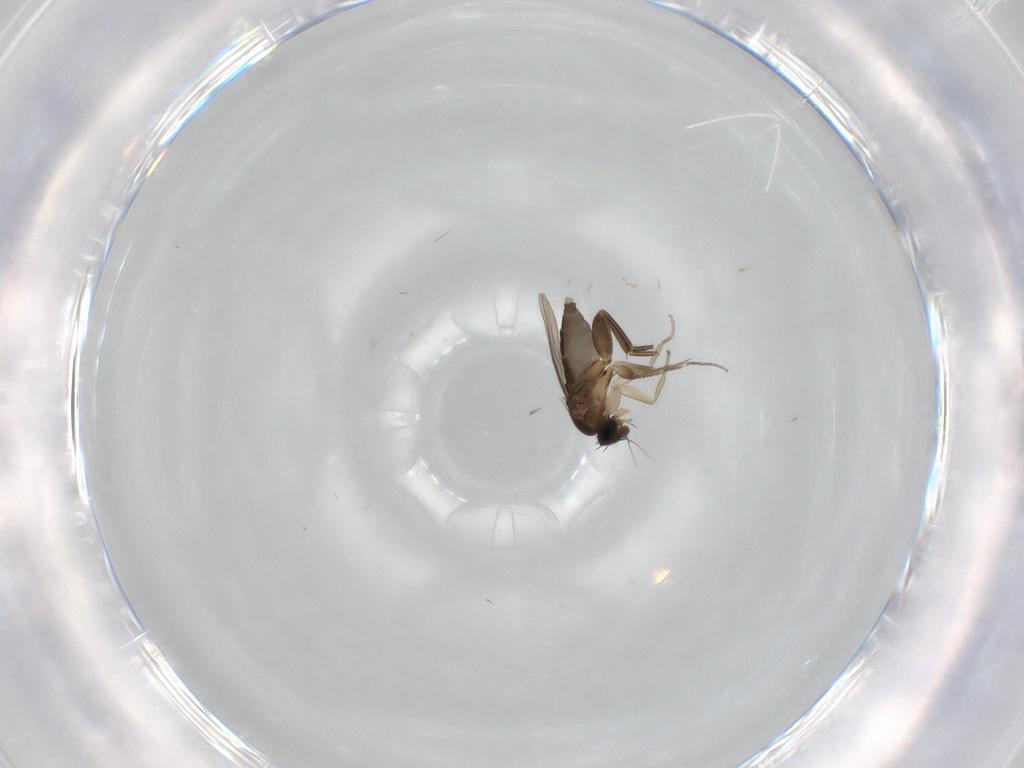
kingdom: Animalia
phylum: Arthropoda
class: Insecta
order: Diptera
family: Phoridae
